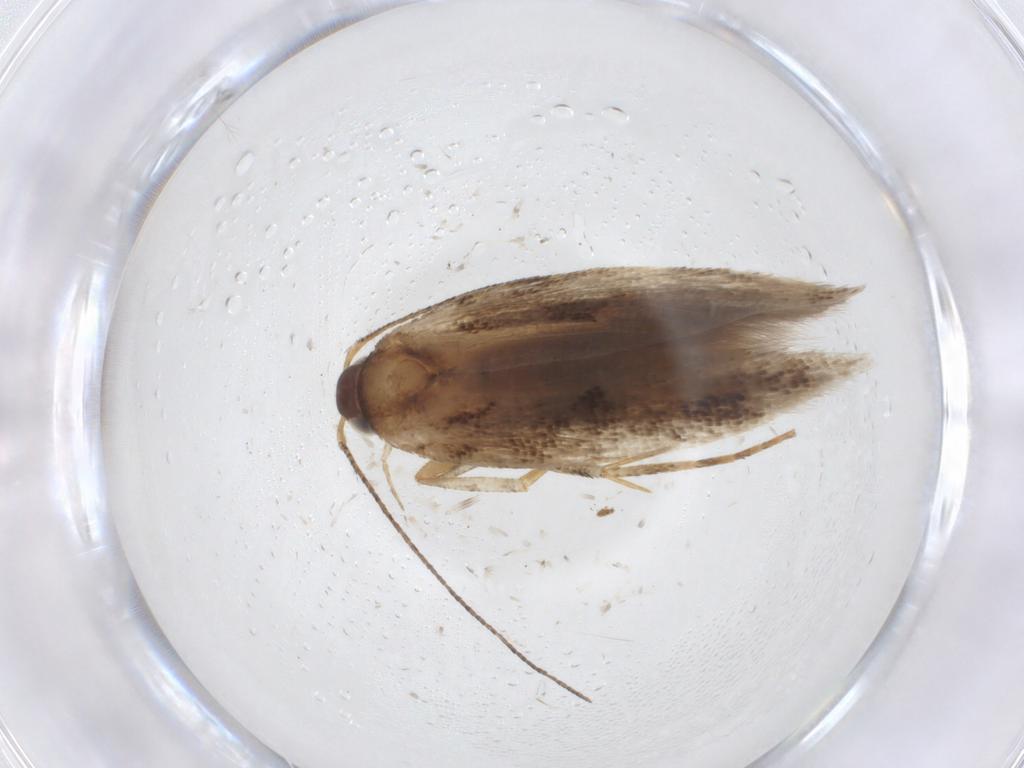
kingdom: Animalia
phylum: Arthropoda
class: Insecta
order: Lepidoptera
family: Gelechiidae
